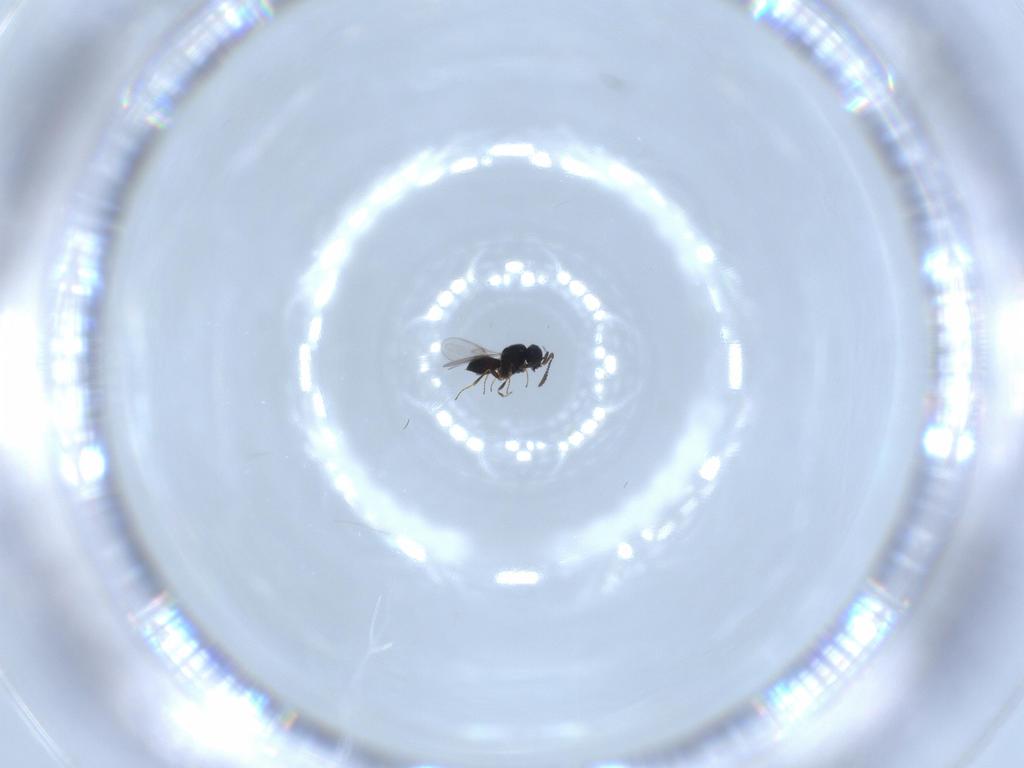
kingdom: Animalia
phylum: Arthropoda
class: Insecta
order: Hymenoptera
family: Scelionidae
